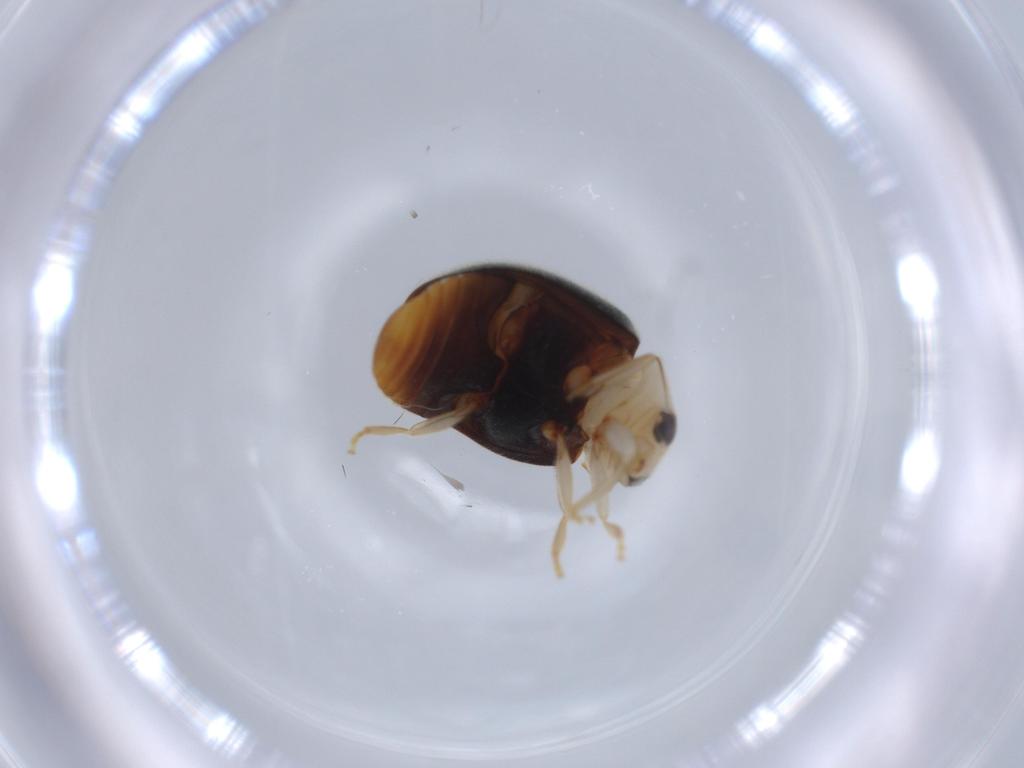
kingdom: Animalia
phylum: Arthropoda
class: Insecta
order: Coleoptera
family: Coccinellidae
